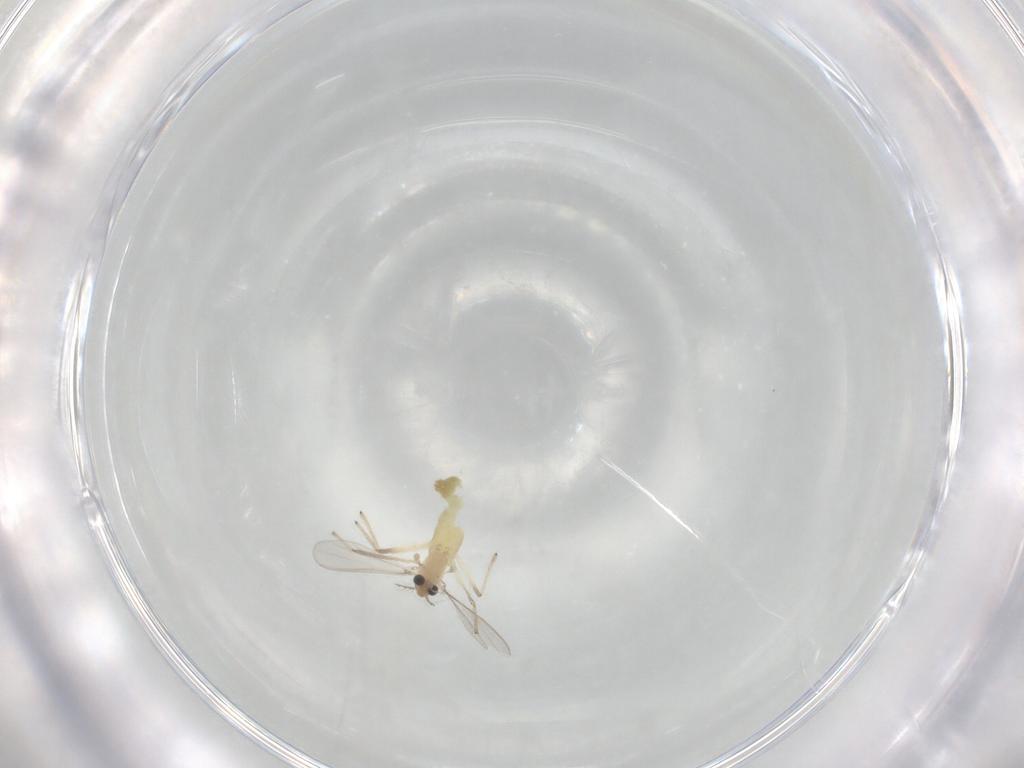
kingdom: Animalia
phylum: Arthropoda
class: Insecta
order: Diptera
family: Chironomidae
